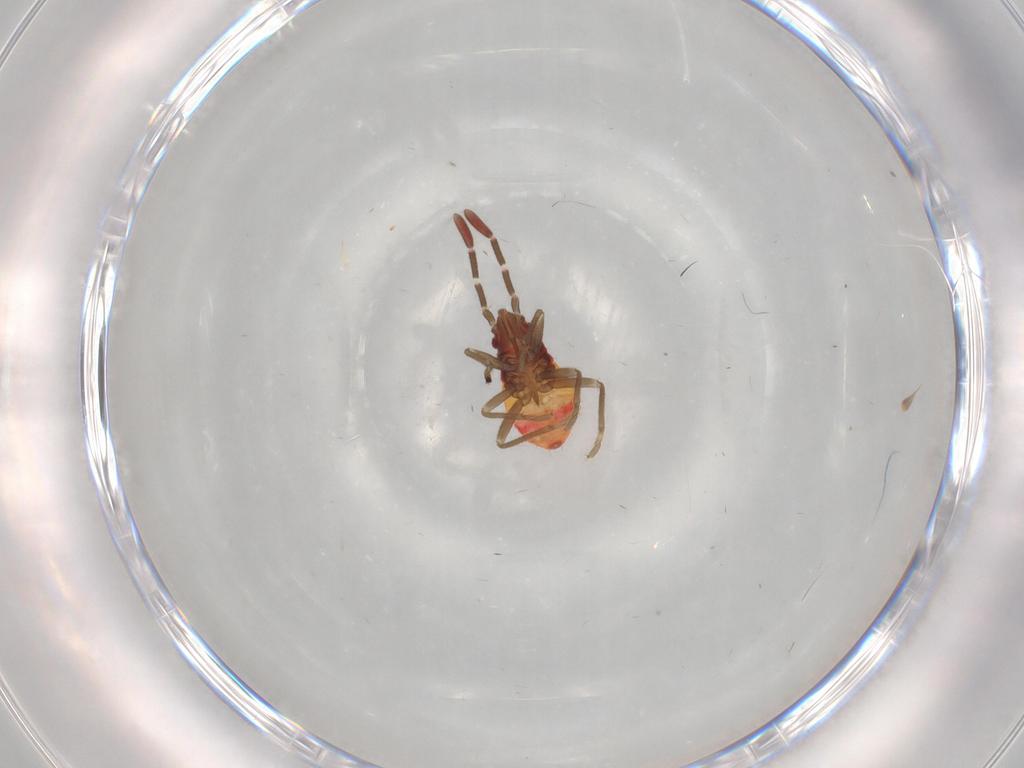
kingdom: Animalia
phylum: Arthropoda
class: Insecta
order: Hemiptera
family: Rhyparochromidae
